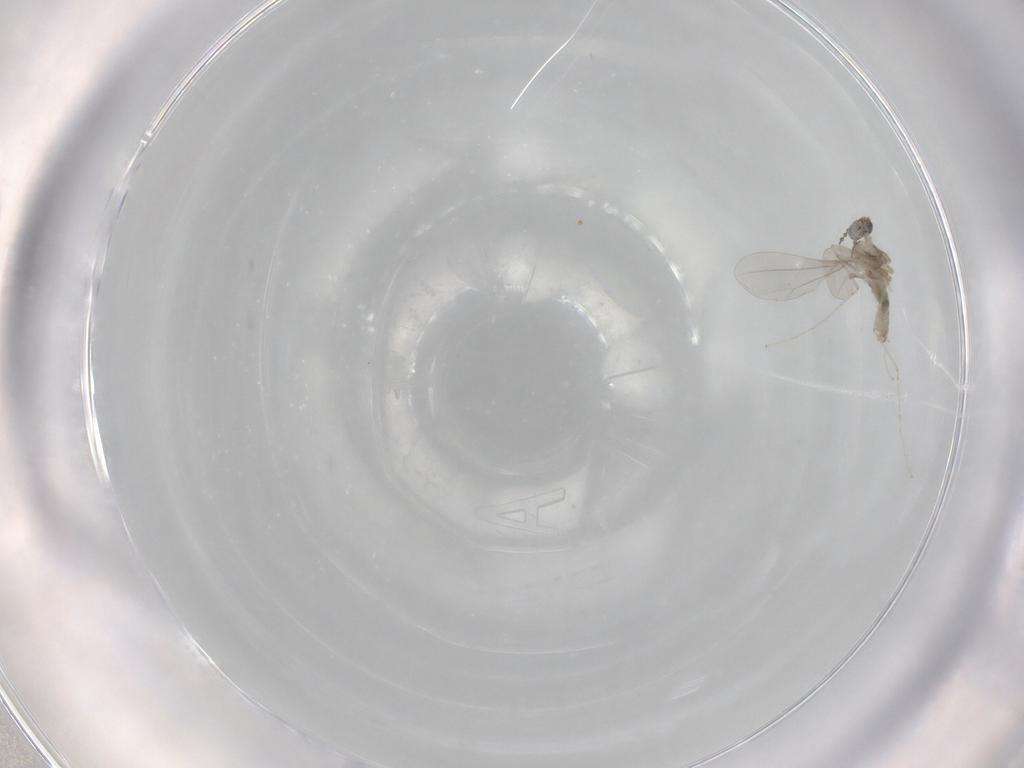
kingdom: Animalia
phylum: Arthropoda
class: Insecta
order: Diptera
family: Cecidomyiidae
